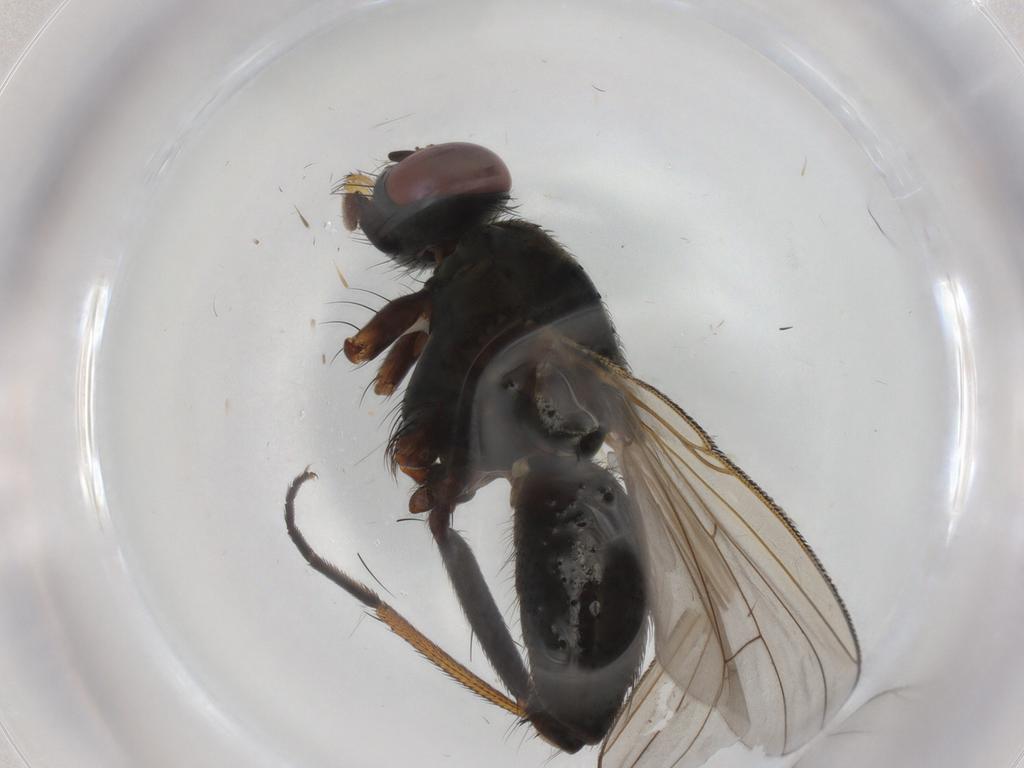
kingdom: Animalia
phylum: Arthropoda
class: Insecta
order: Diptera
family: Muscidae
